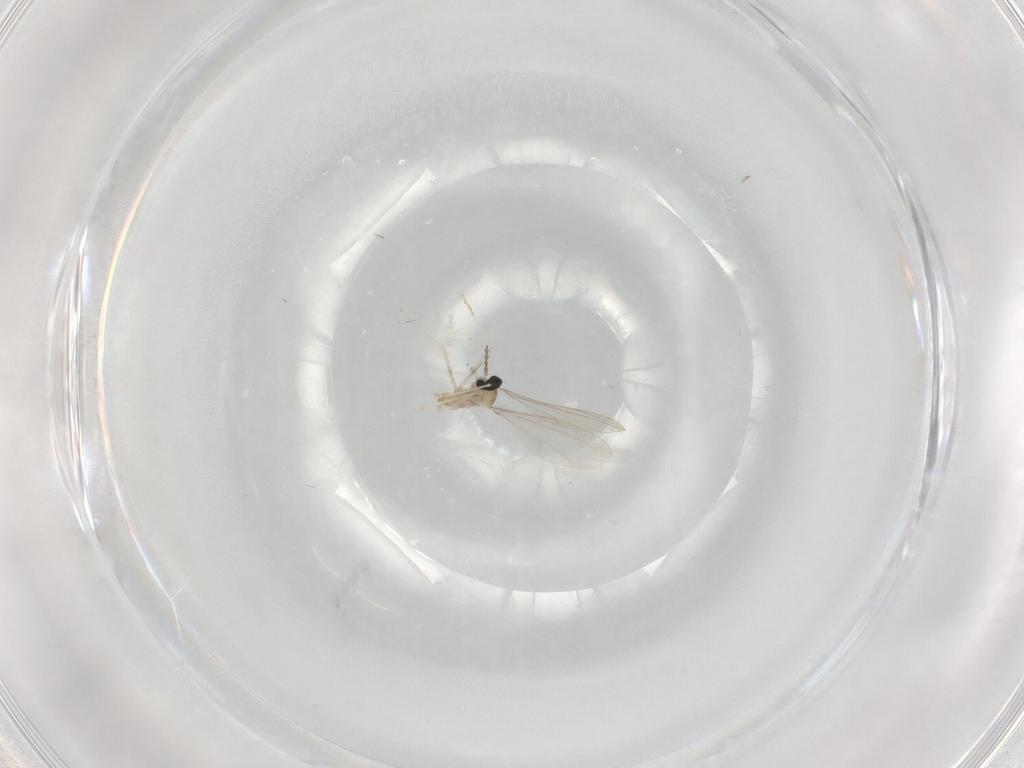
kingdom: Animalia
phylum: Arthropoda
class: Insecta
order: Diptera
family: Cecidomyiidae
